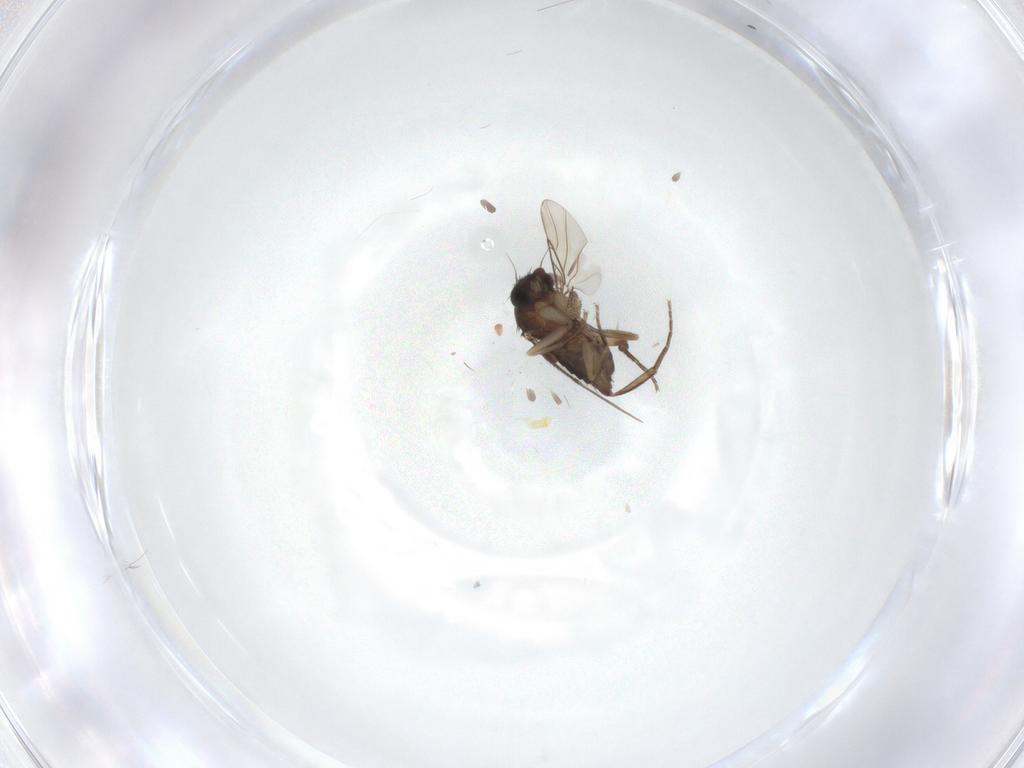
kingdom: Animalia
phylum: Arthropoda
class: Insecta
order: Diptera
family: Phoridae
